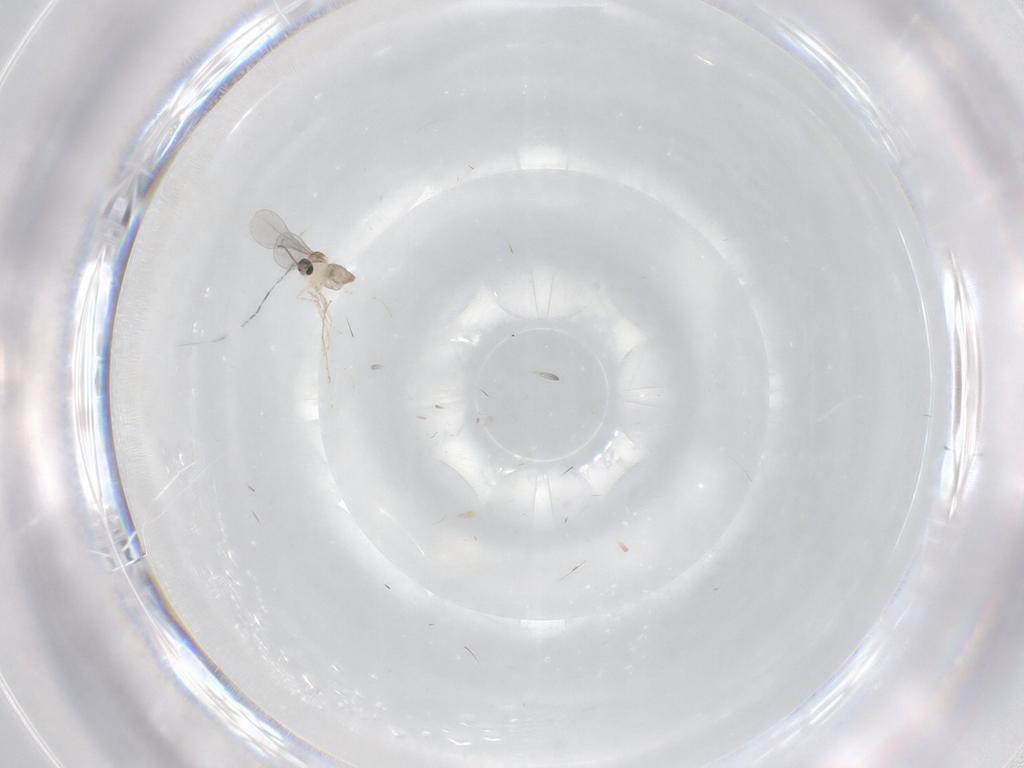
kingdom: Animalia
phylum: Arthropoda
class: Insecta
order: Diptera
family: Cecidomyiidae
